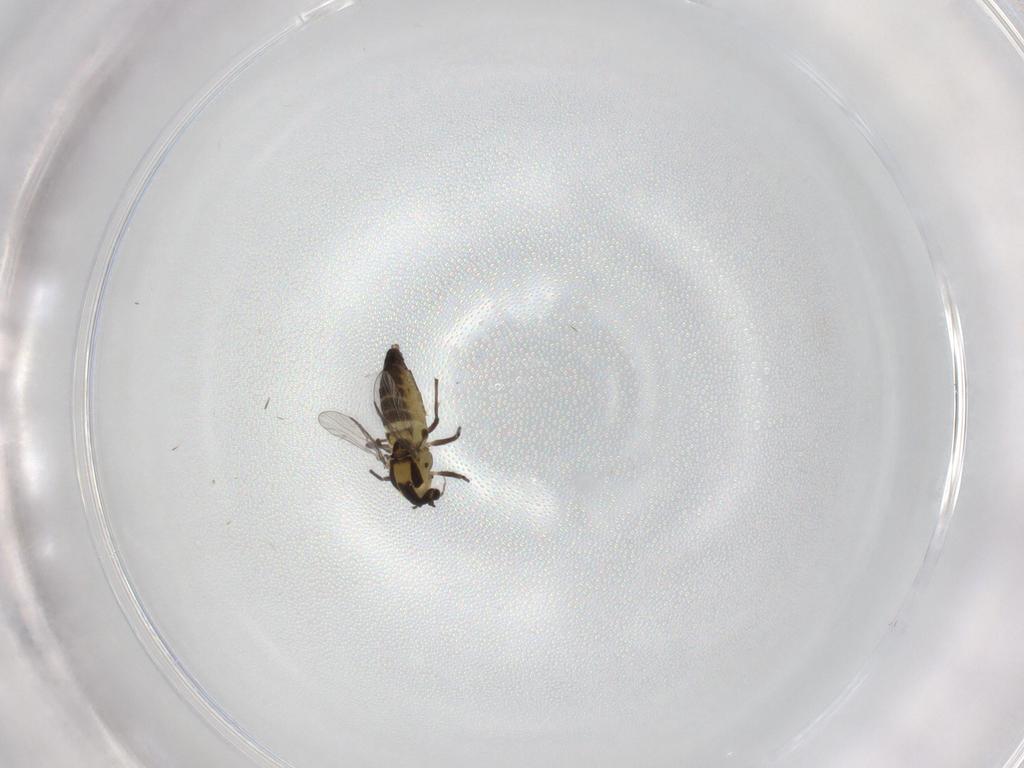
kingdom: Animalia
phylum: Arthropoda
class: Insecta
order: Diptera
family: Chironomidae
